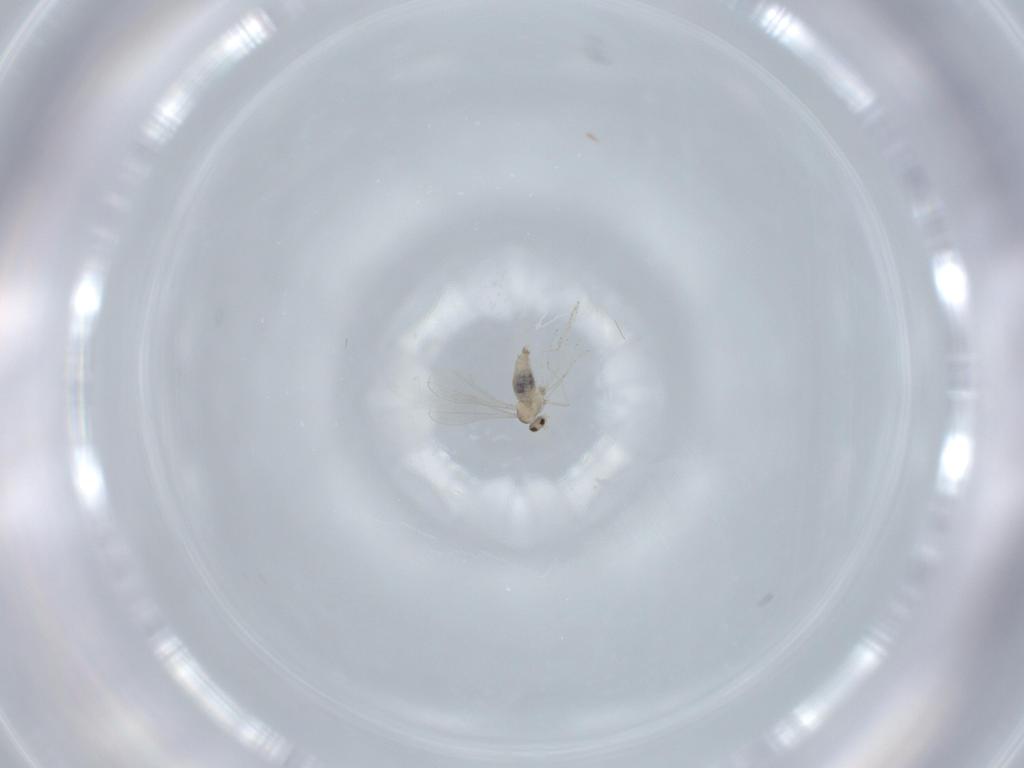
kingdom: Animalia
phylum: Arthropoda
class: Insecta
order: Diptera
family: Cecidomyiidae
